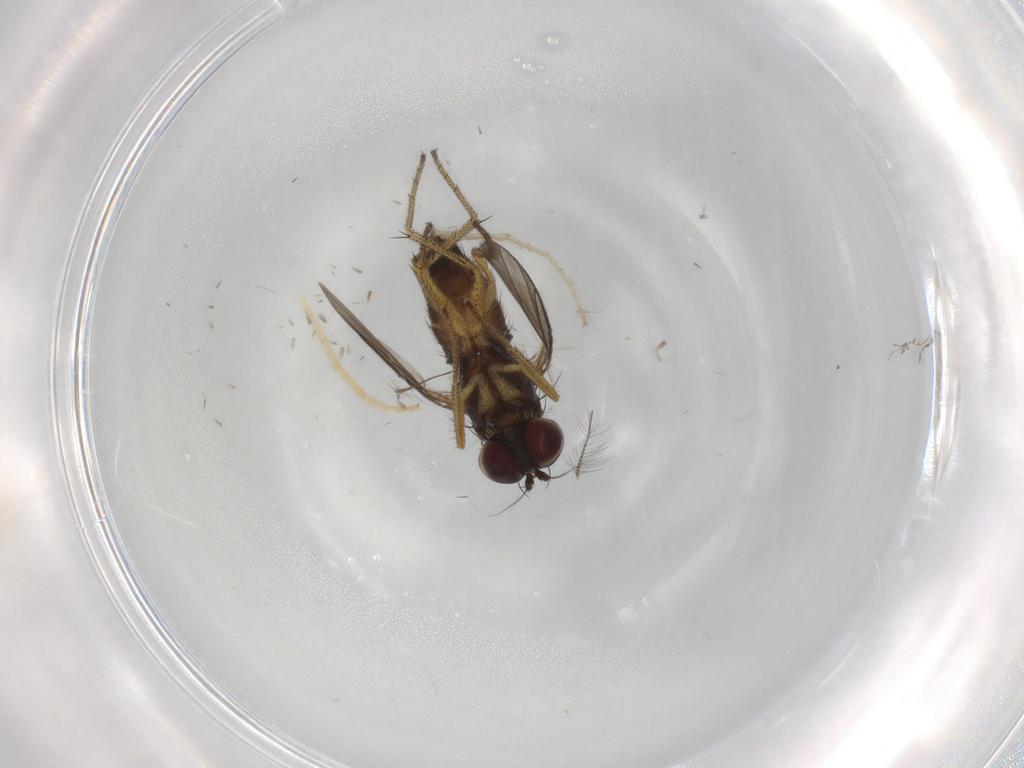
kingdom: Animalia
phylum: Arthropoda
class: Insecta
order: Diptera
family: Chironomidae
